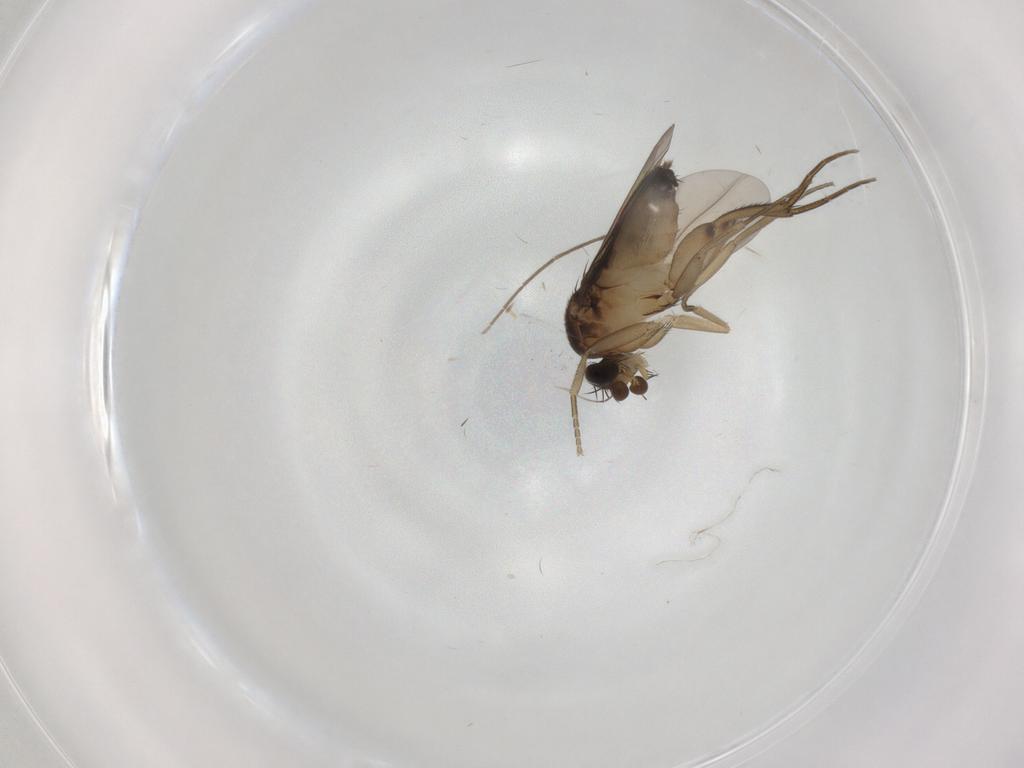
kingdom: Animalia
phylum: Arthropoda
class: Insecta
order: Diptera
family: Phoridae
